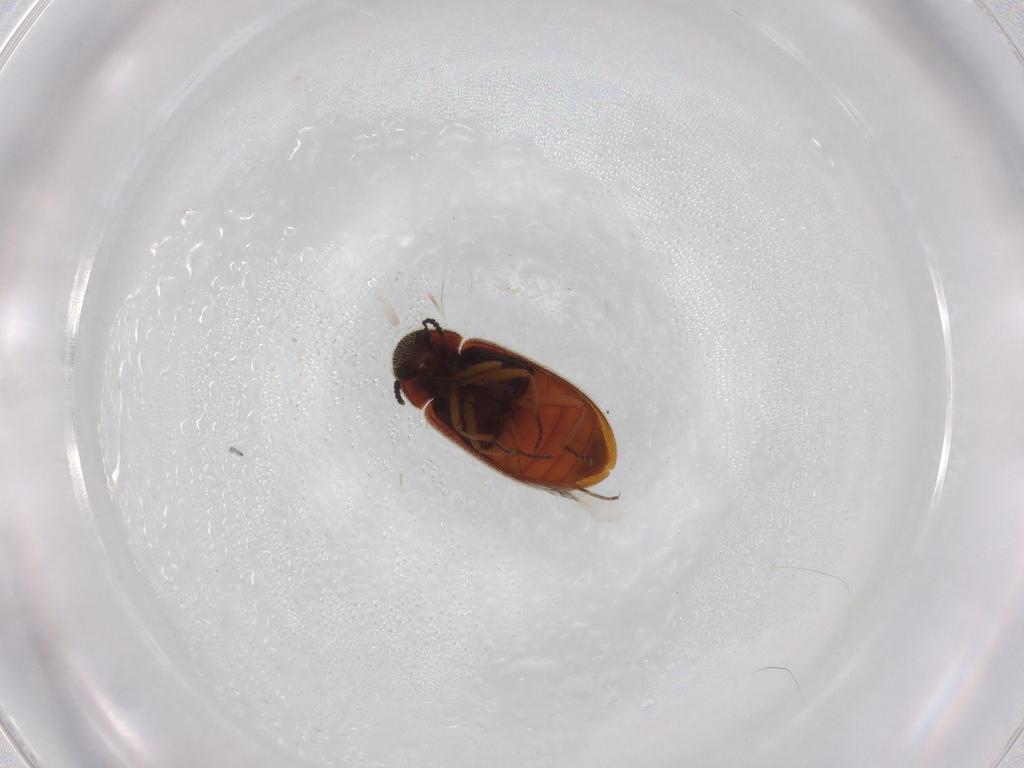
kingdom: Animalia
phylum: Arthropoda
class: Insecta
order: Coleoptera
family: Rhadalidae
